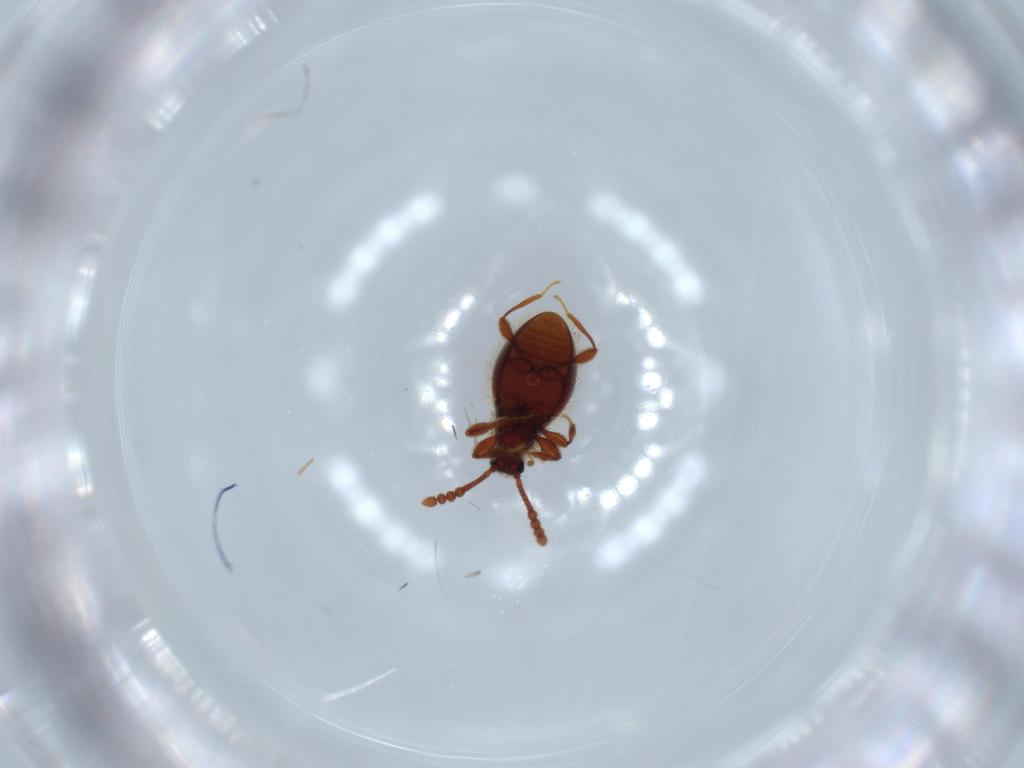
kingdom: Animalia
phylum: Arthropoda
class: Insecta
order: Coleoptera
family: Staphylinidae
